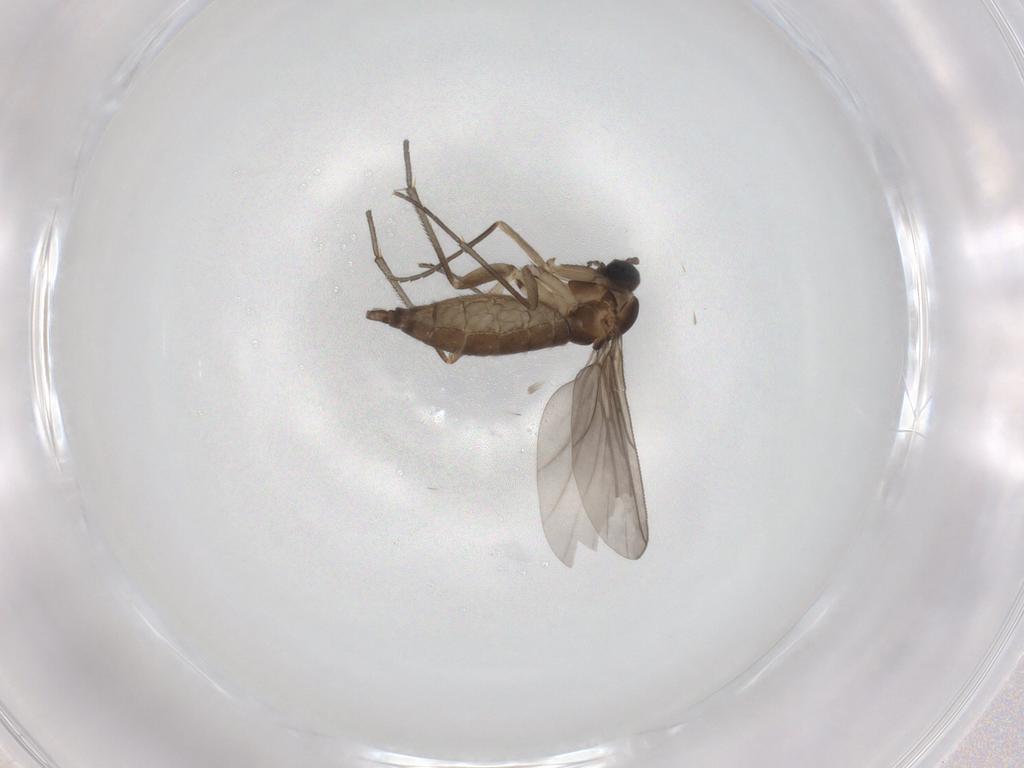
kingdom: Animalia
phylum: Arthropoda
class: Insecta
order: Diptera
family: Sciaridae
